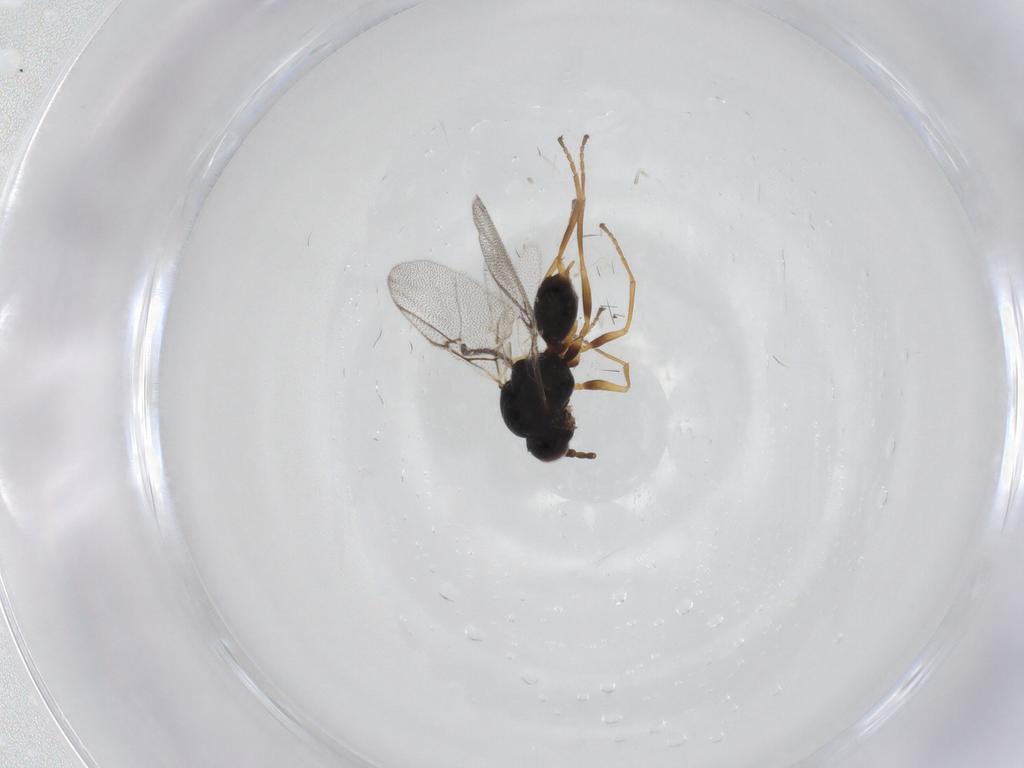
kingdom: Animalia
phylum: Arthropoda
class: Insecta
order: Hymenoptera
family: Cynipidae
